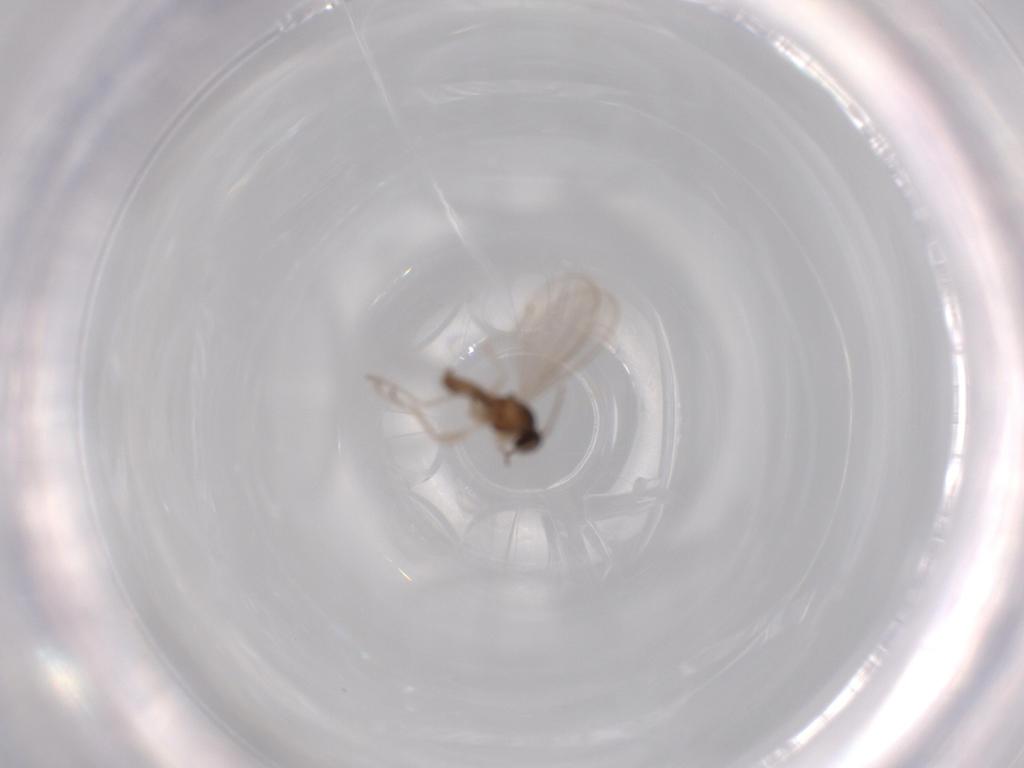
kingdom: Animalia
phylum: Arthropoda
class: Insecta
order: Diptera
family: Cecidomyiidae
